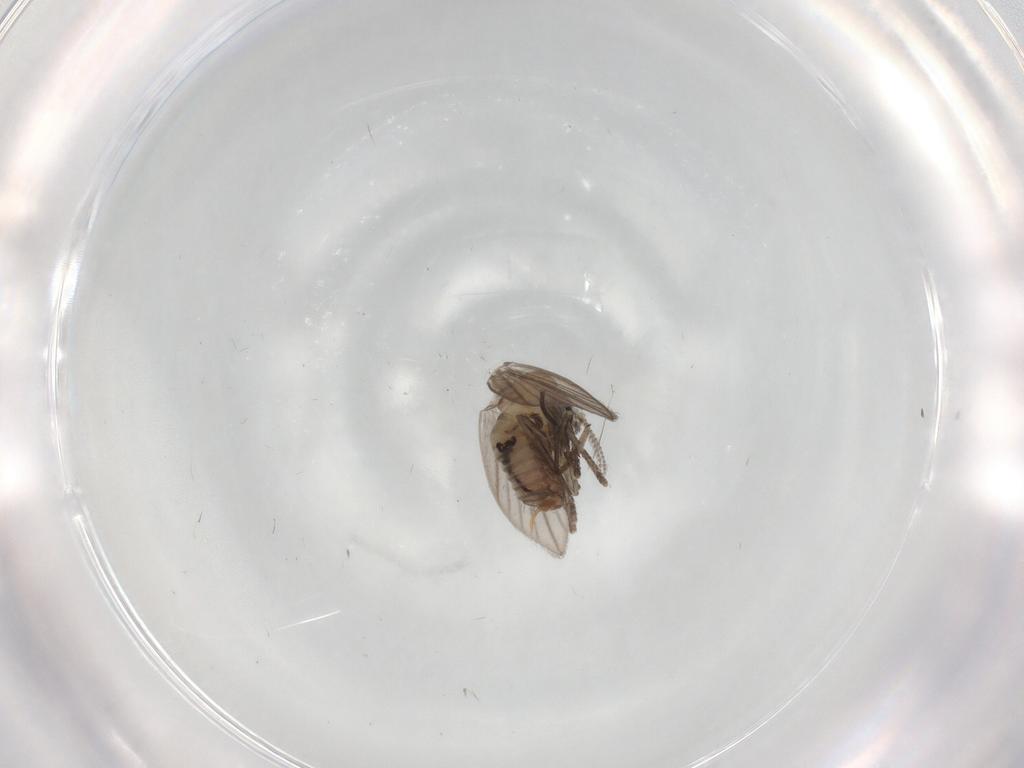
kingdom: Animalia
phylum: Arthropoda
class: Insecta
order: Diptera
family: Psychodidae
